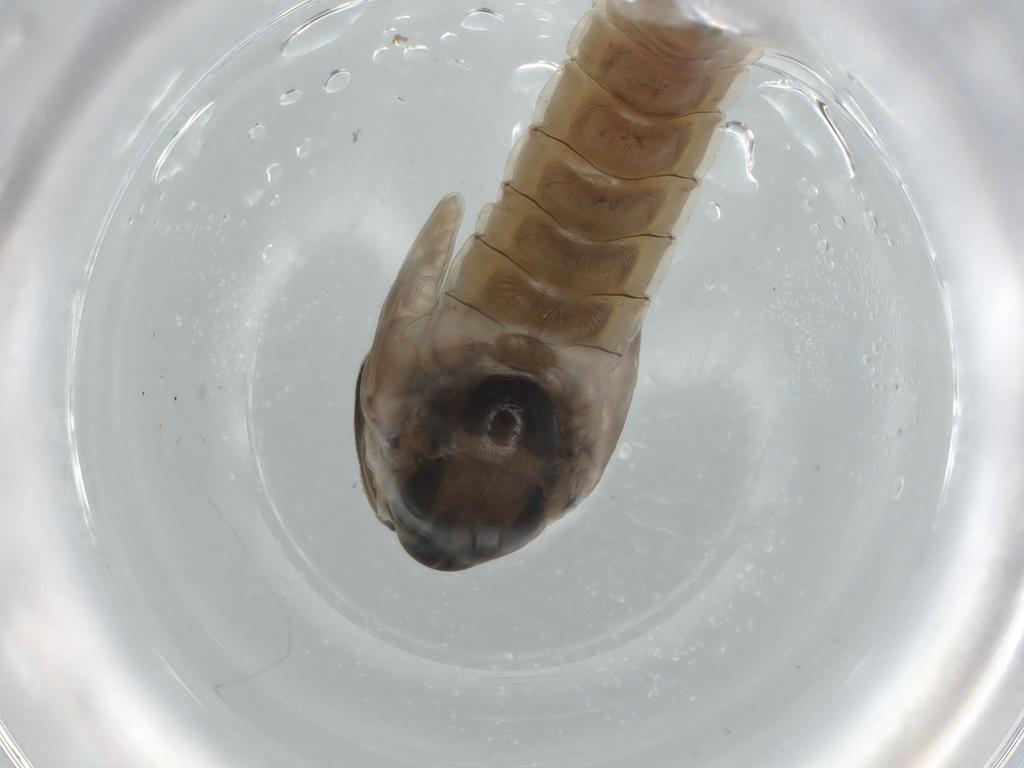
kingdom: Animalia
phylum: Arthropoda
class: Insecta
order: Diptera
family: Chironomidae
